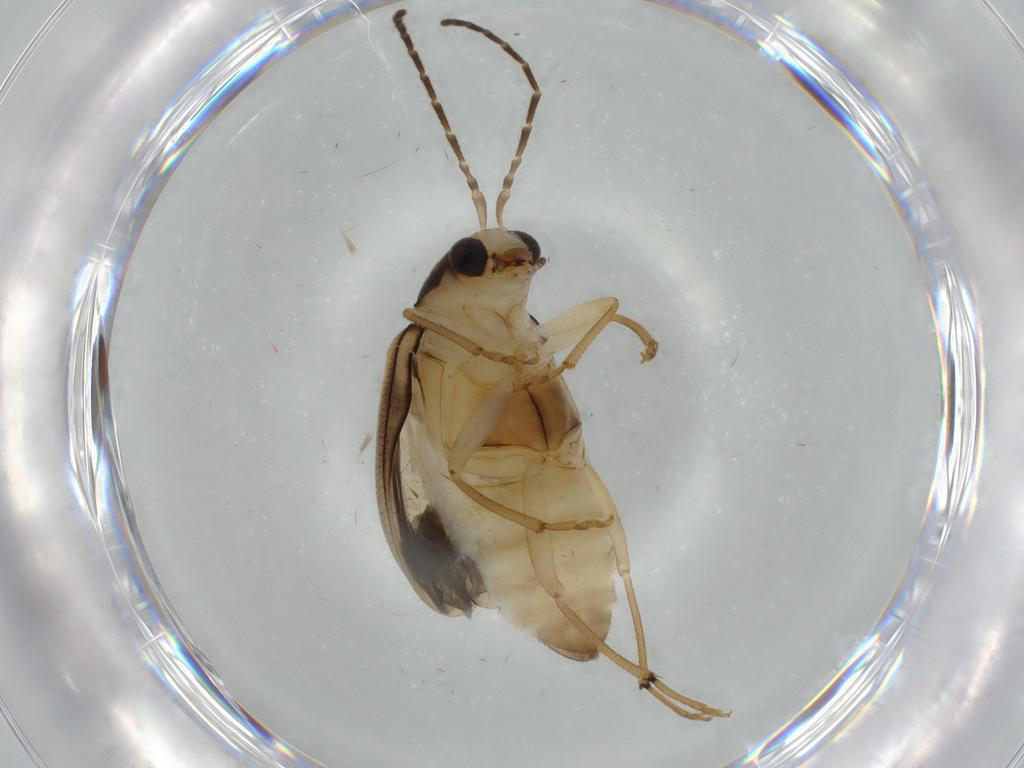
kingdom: Animalia
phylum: Arthropoda
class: Insecta
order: Coleoptera
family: Chrysomelidae
